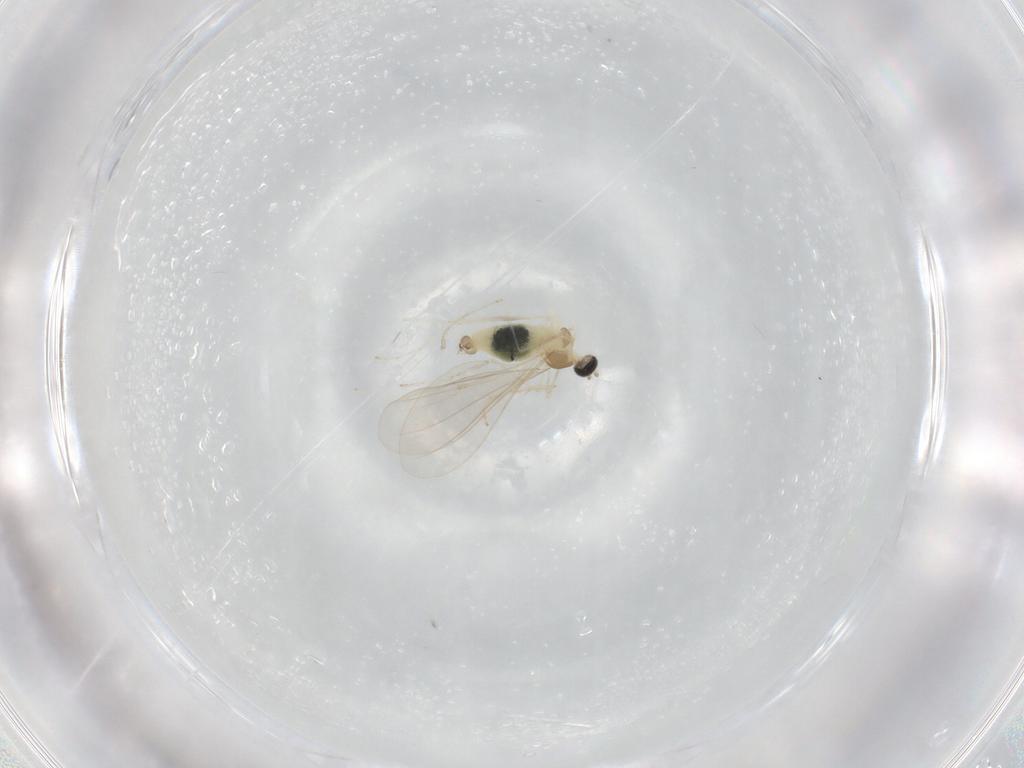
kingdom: Animalia
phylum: Arthropoda
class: Insecta
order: Diptera
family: Cecidomyiidae
